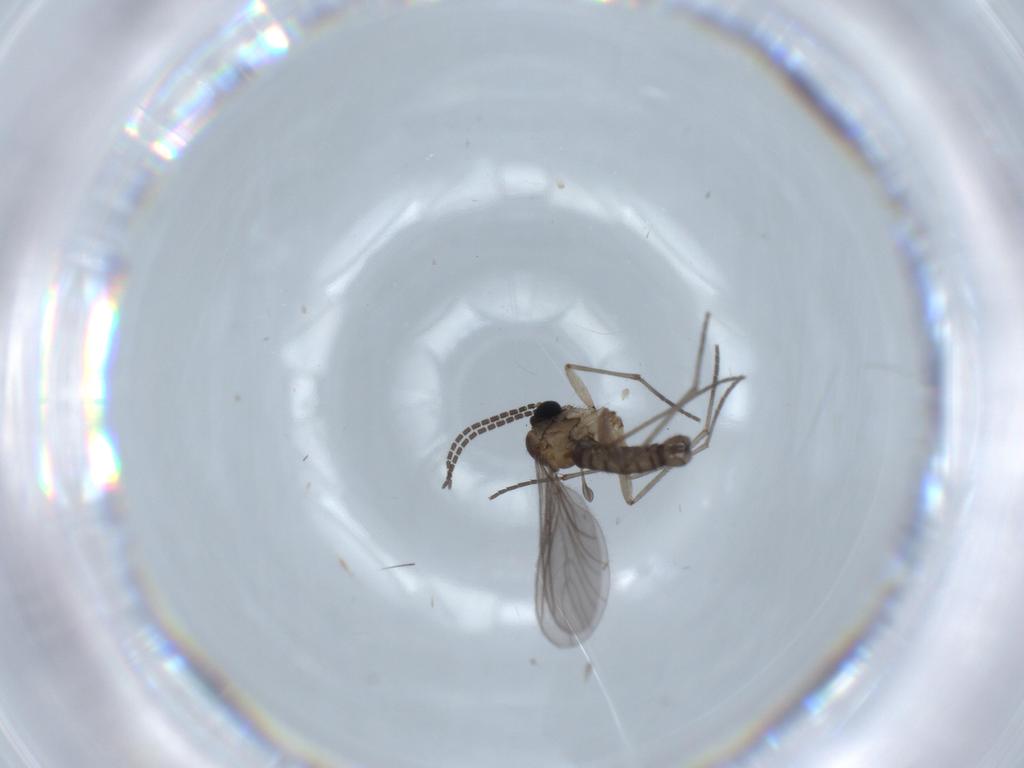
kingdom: Animalia
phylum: Arthropoda
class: Insecta
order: Diptera
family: Sciaridae
